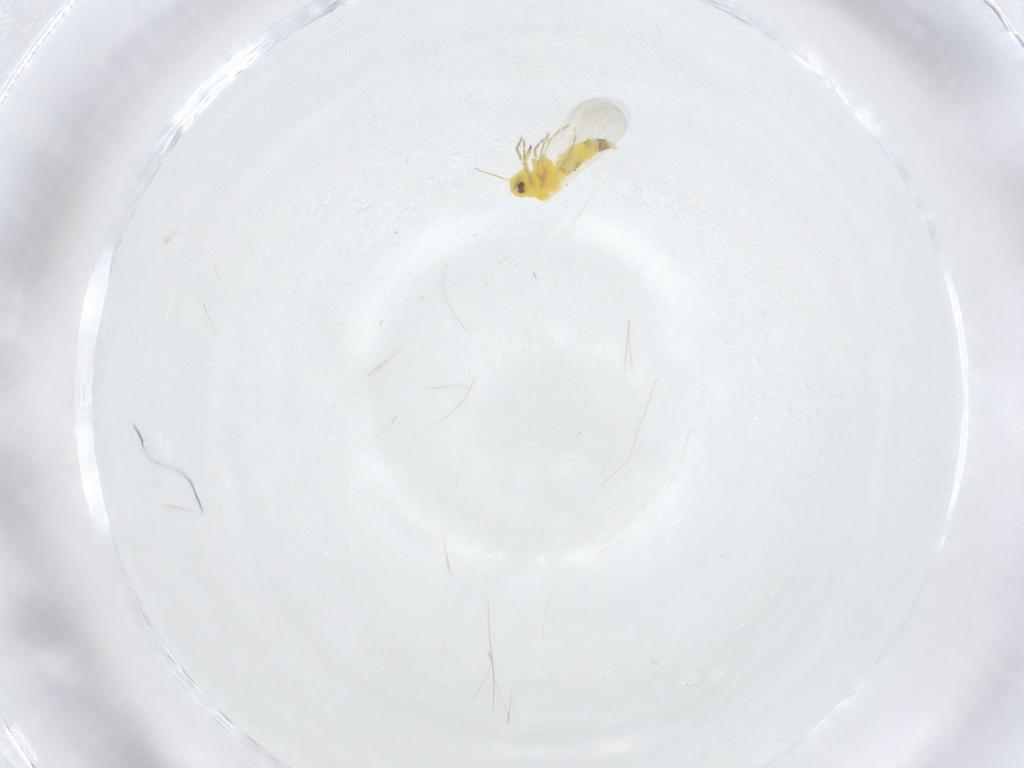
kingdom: Animalia
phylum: Arthropoda
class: Insecta
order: Hemiptera
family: Aleyrodidae
